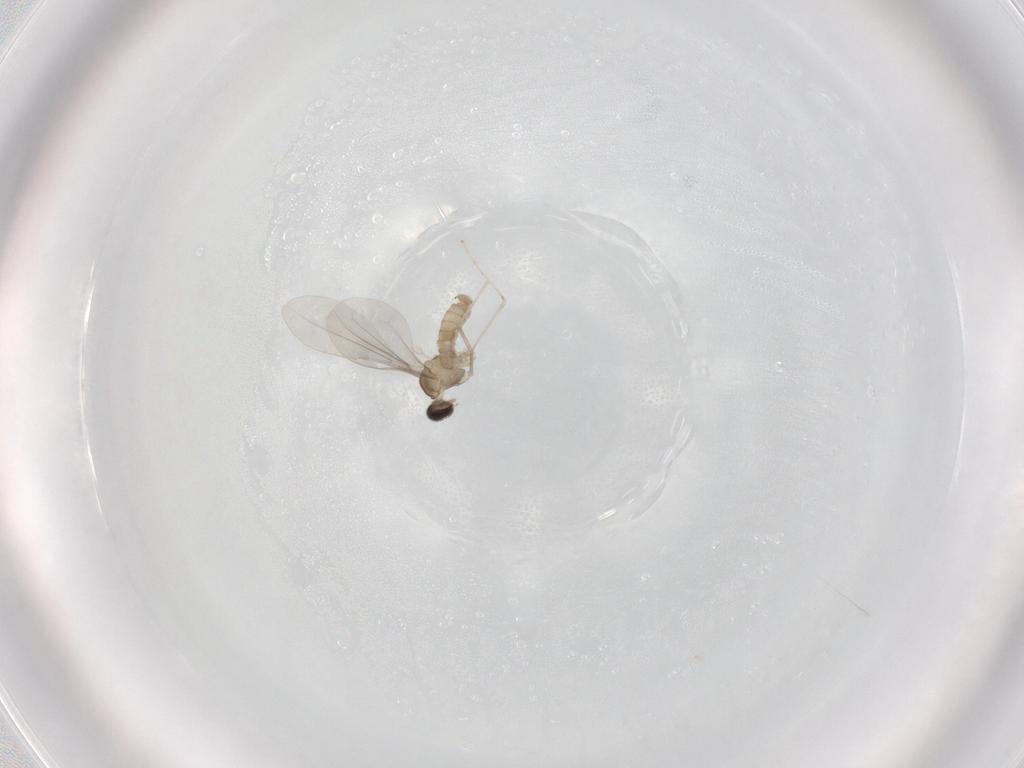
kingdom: Animalia
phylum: Arthropoda
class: Insecta
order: Diptera
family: Cecidomyiidae
